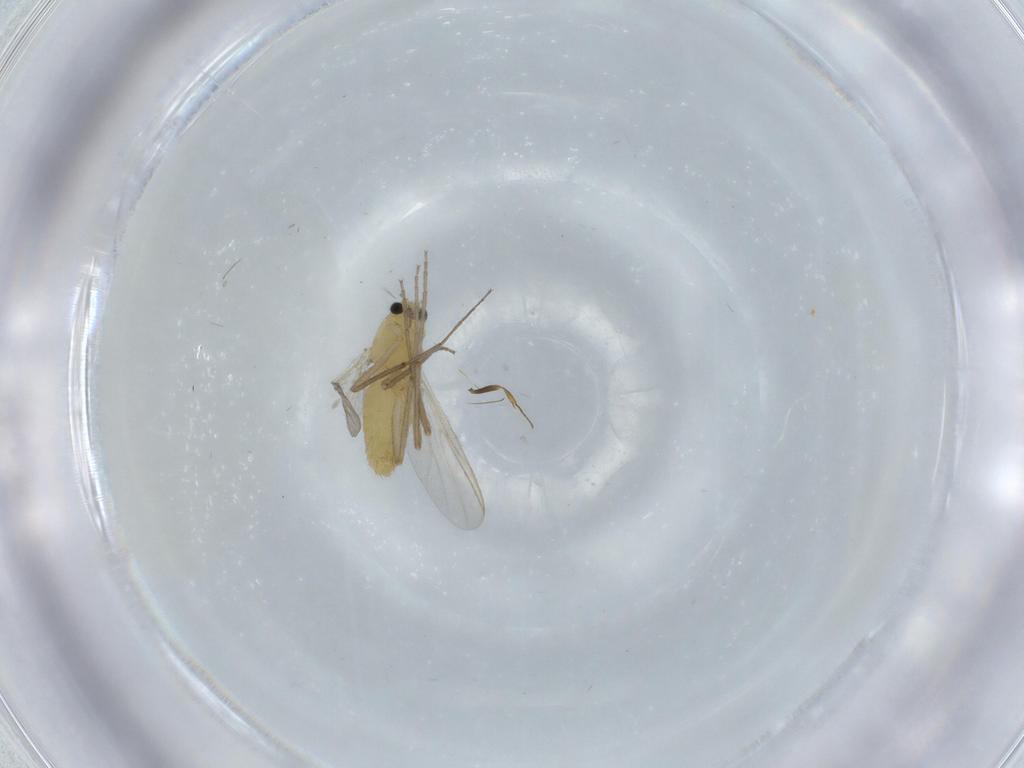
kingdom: Animalia
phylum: Arthropoda
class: Insecta
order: Diptera
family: Chironomidae
